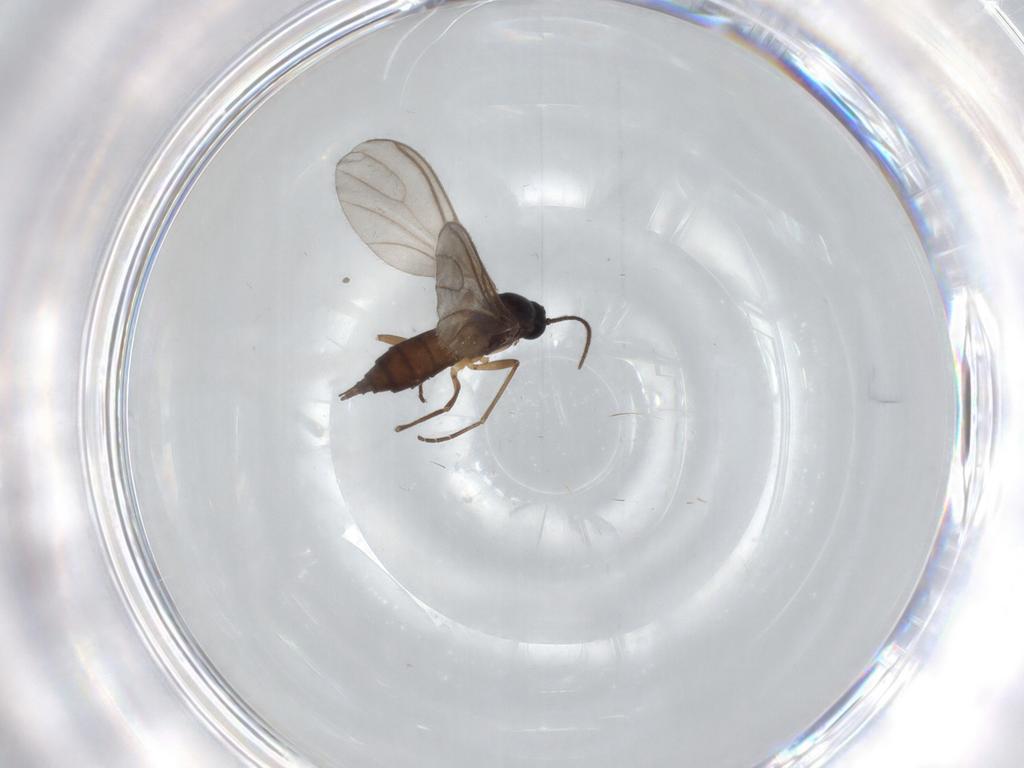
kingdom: Animalia
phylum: Arthropoda
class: Insecta
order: Diptera
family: Sciaridae
